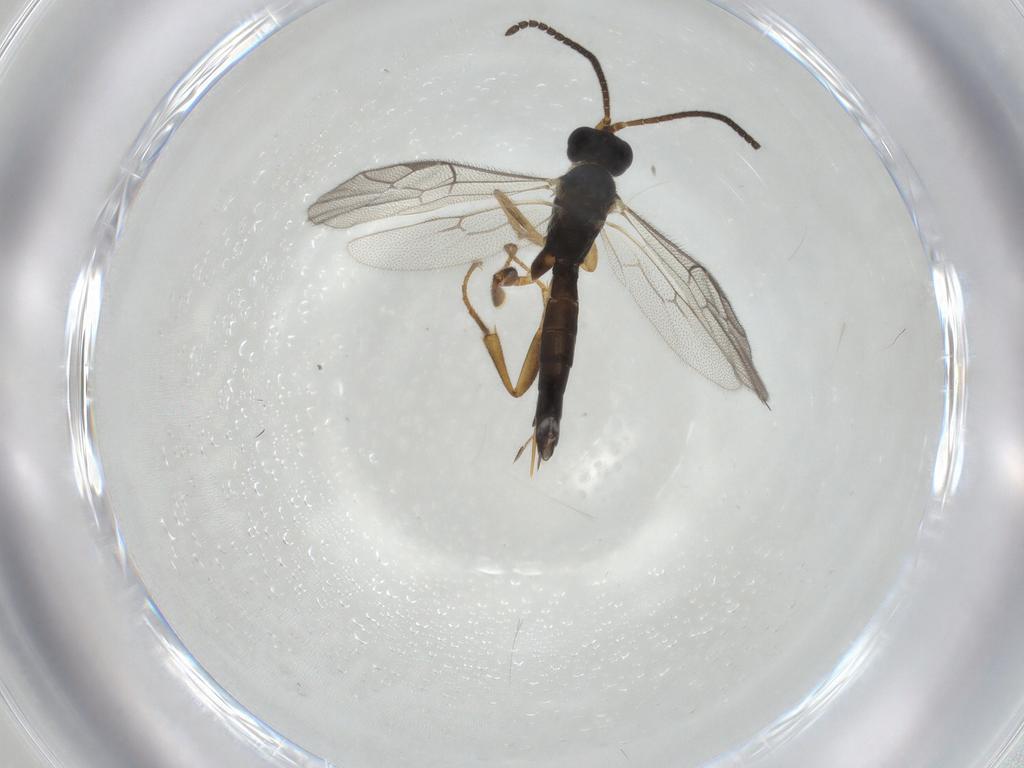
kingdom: Animalia
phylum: Arthropoda
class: Insecta
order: Hymenoptera
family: Ichneumonidae
